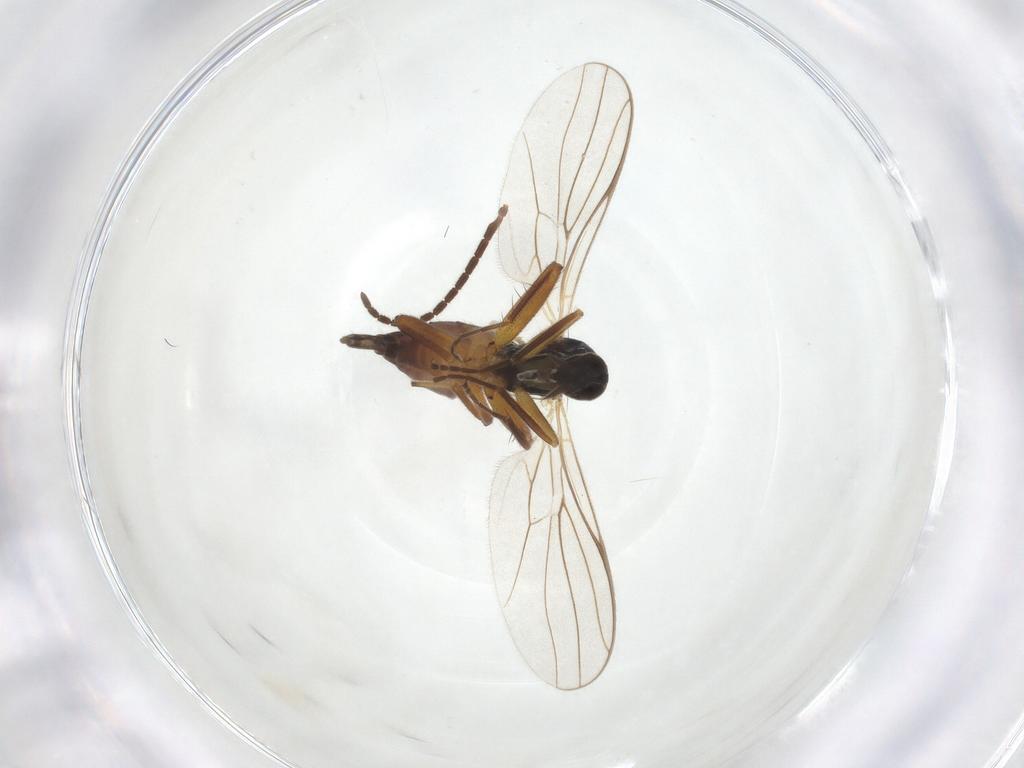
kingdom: Animalia
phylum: Arthropoda
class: Insecta
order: Diptera
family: Hybotidae
